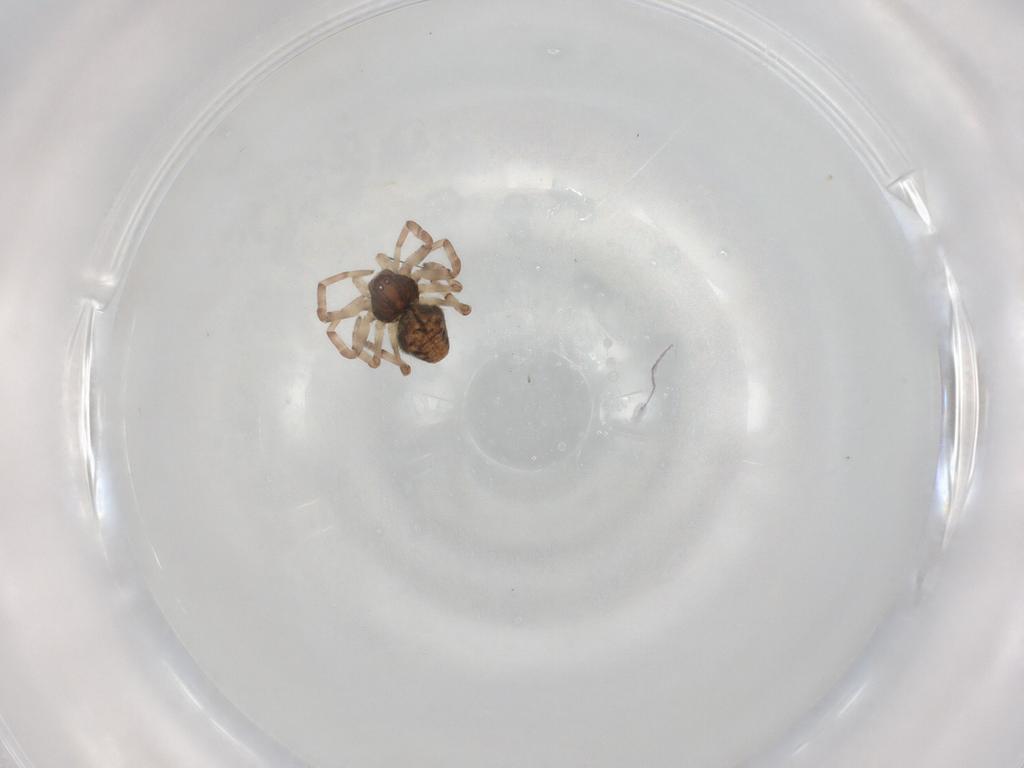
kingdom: Animalia
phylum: Arthropoda
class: Arachnida
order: Araneae
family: Dictynidae
